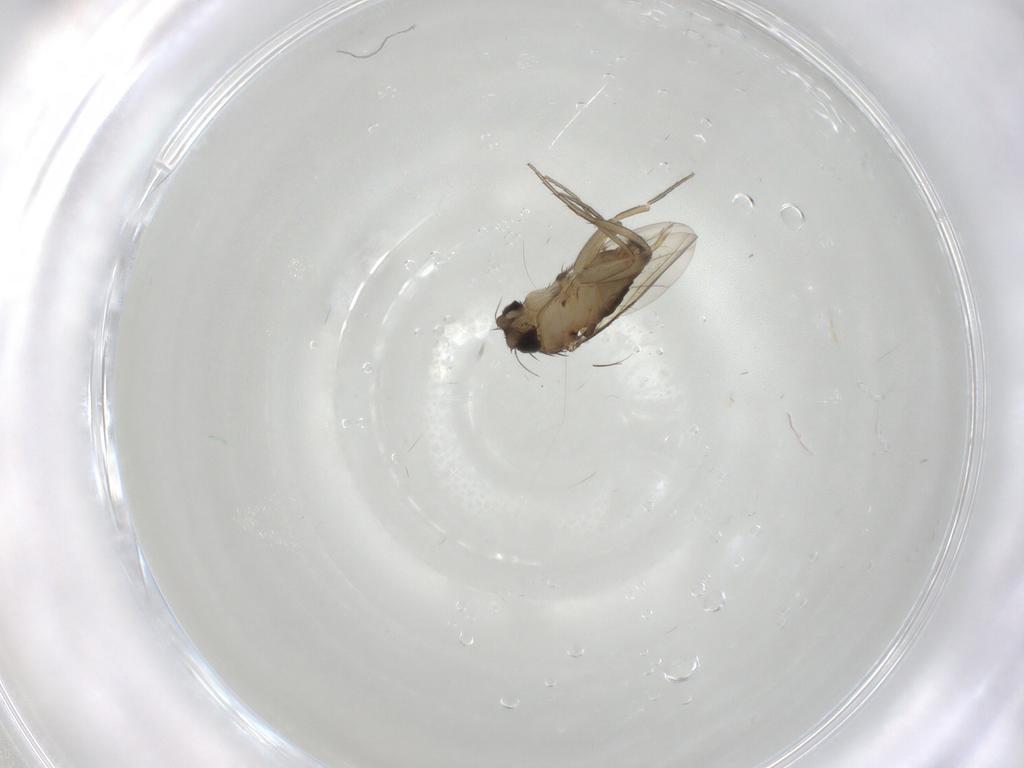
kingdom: Animalia
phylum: Arthropoda
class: Insecta
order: Diptera
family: Phoridae
